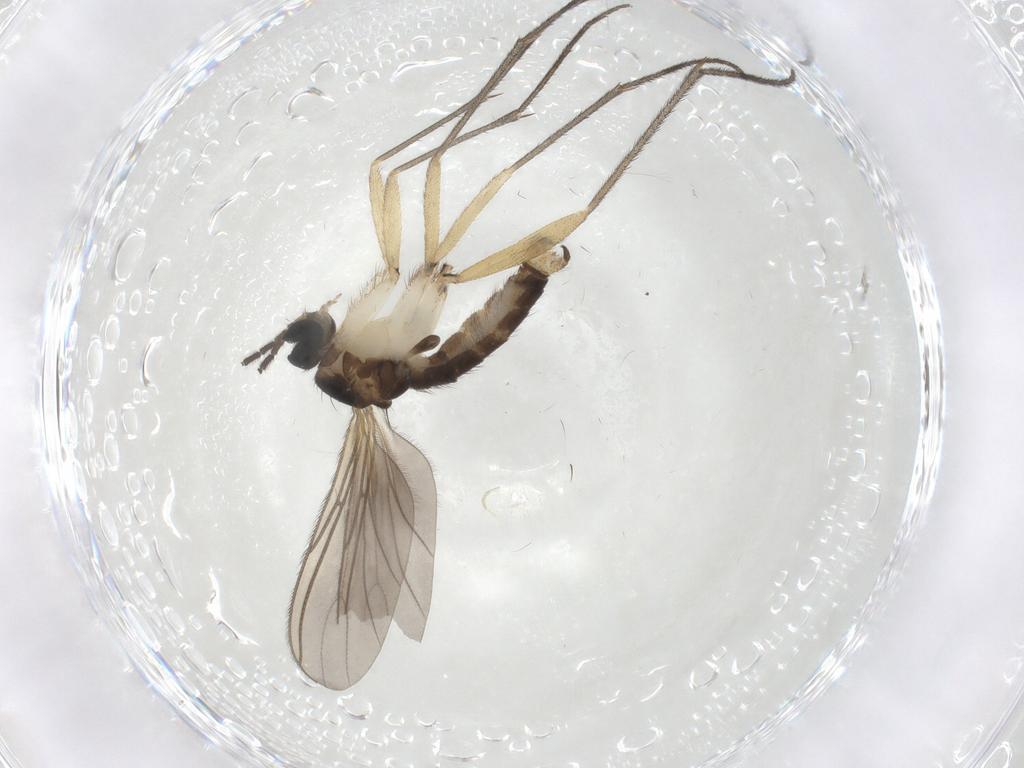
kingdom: Animalia
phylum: Arthropoda
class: Insecta
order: Diptera
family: Sciaridae
